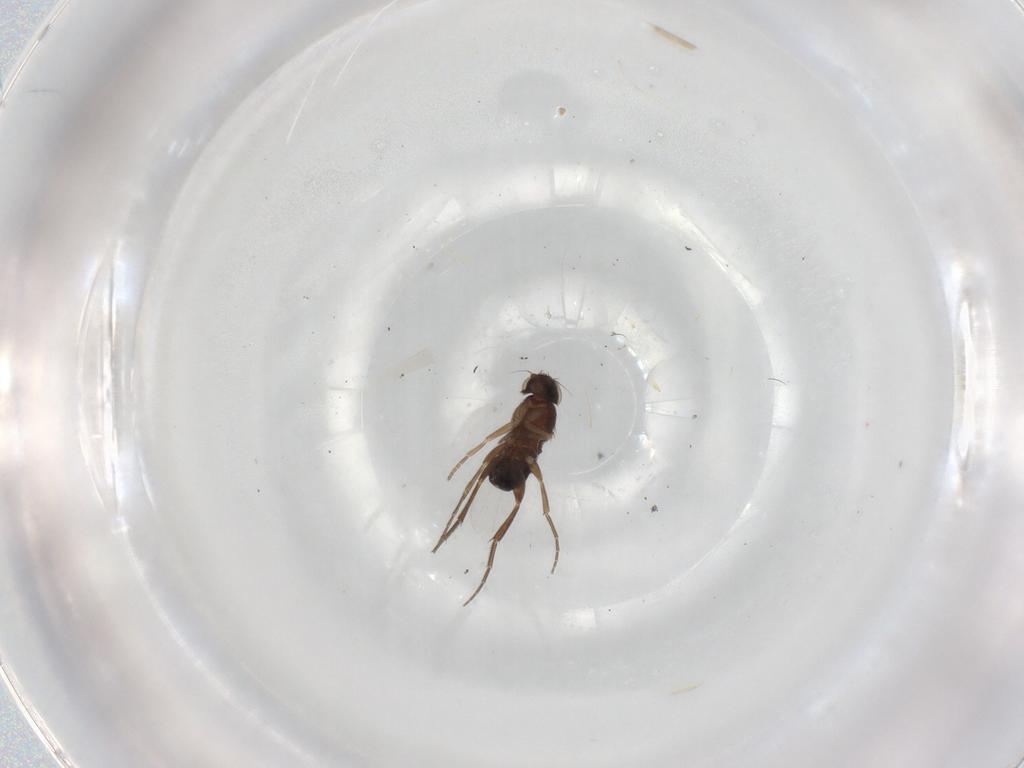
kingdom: Animalia
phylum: Arthropoda
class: Insecta
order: Diptera
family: Phoridae
